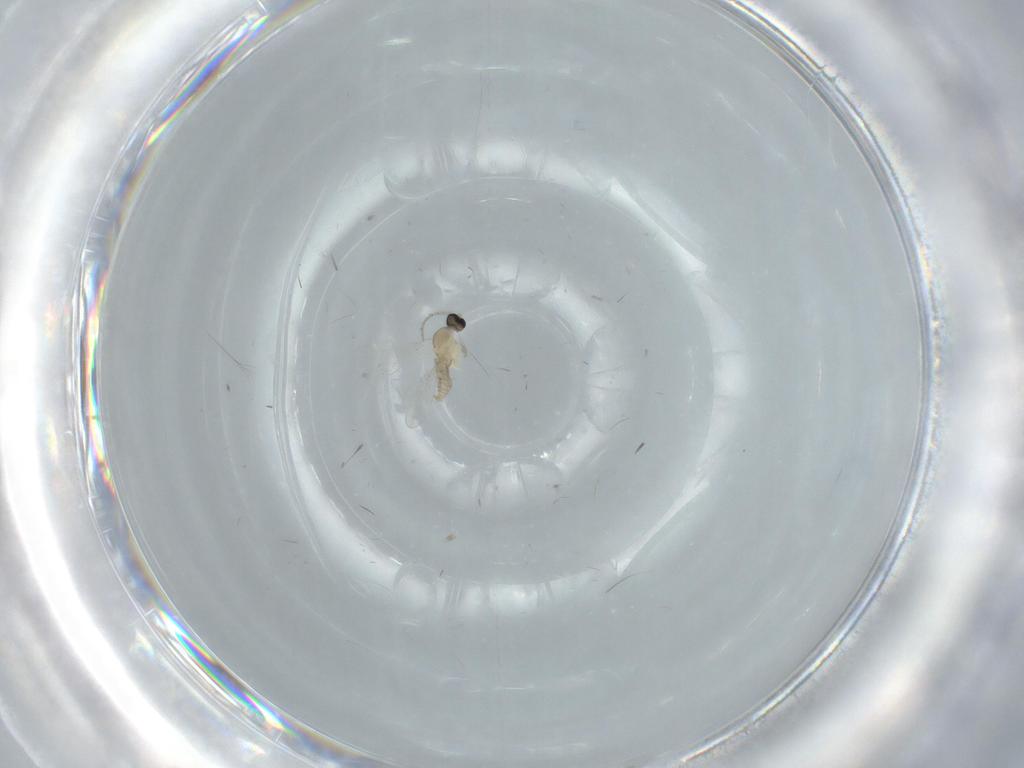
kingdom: Animalia
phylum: Arthropoda
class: Insecta
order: Diptera
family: Cecidomyiidae
